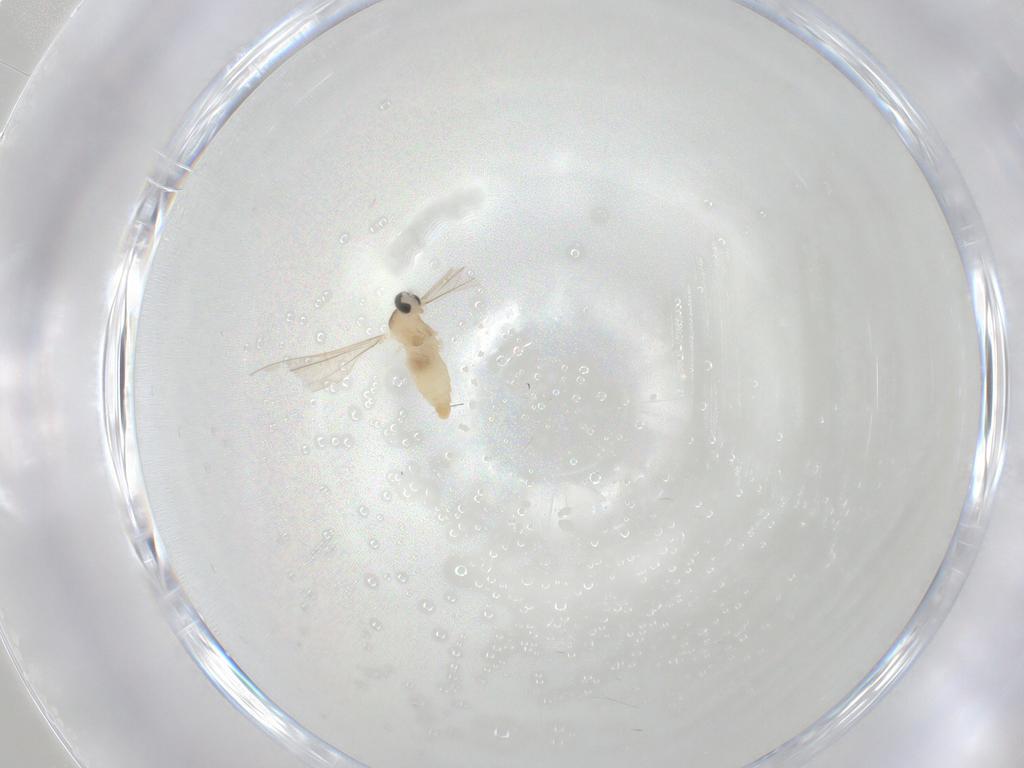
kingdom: Animalia
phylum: Arthropoda
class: Insecta
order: Diptera
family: Cecidomyiidae
